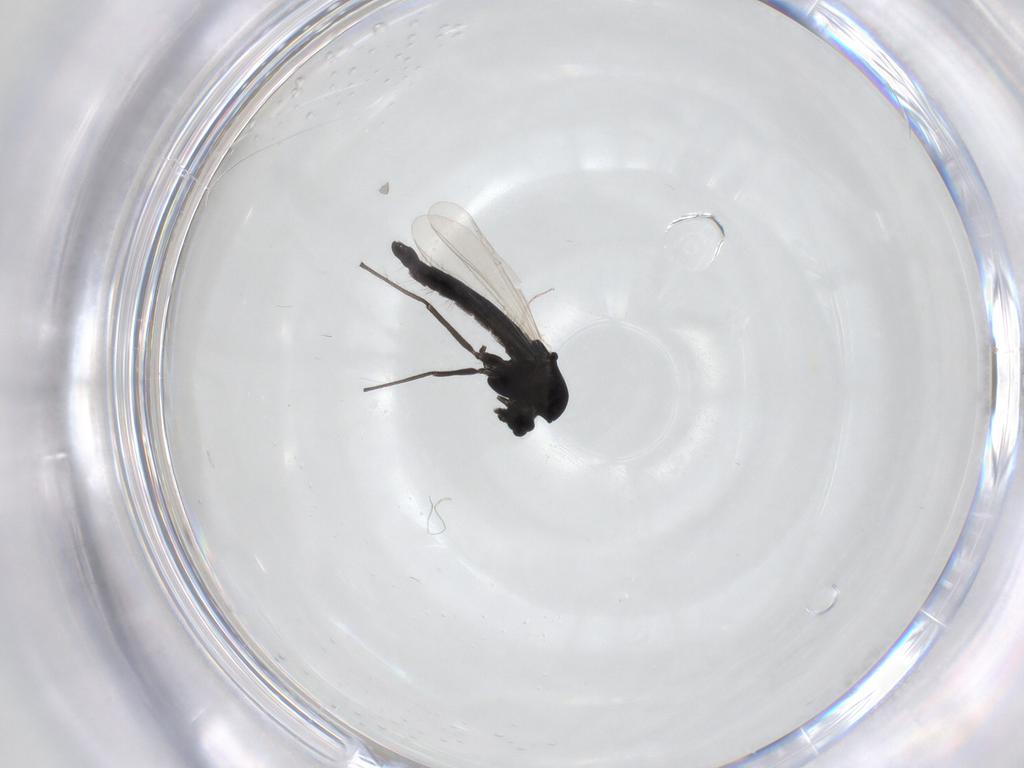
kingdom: Animalia
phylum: Arthropoda
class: Insecta
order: Diptera
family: Chironomidae
